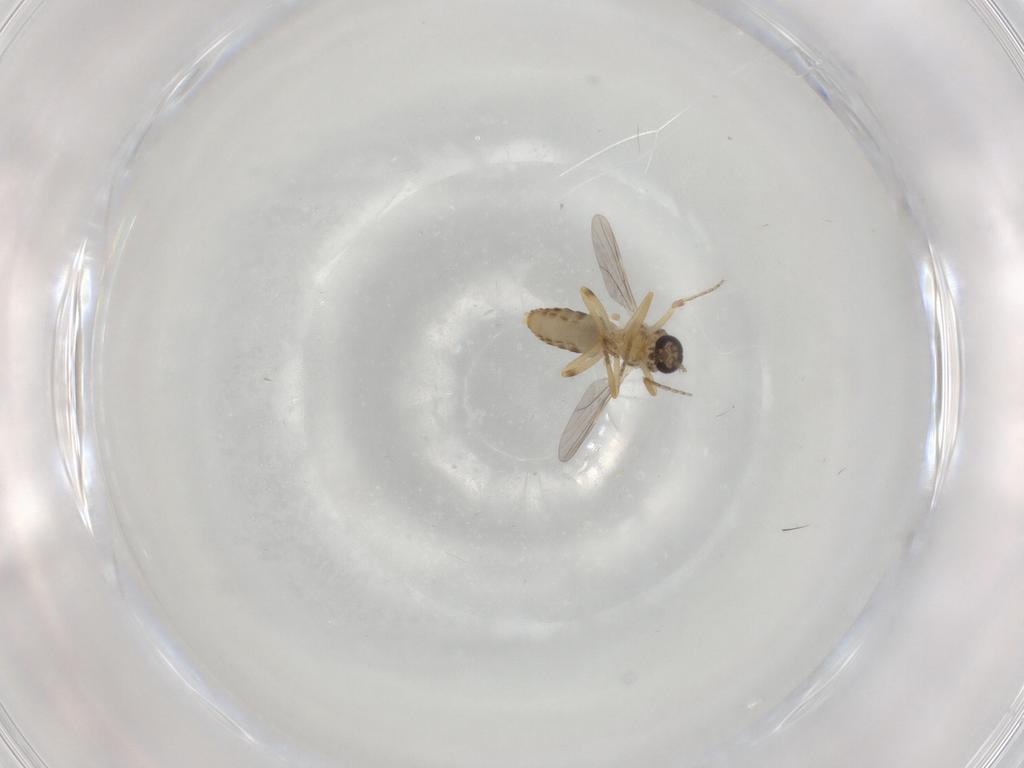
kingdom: Animalia
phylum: Arthropoda
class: Insecta
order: Diptera
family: Ceratopogonidae
